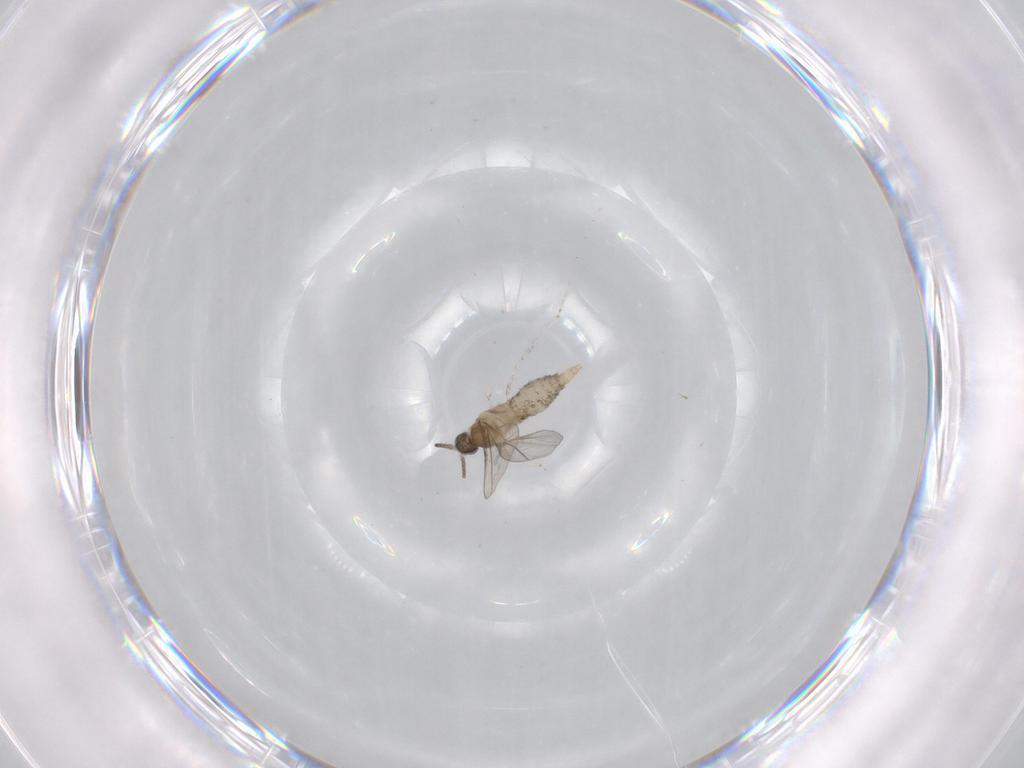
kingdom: Animalia
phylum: Arthropoda
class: Insecta
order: Diptera
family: Cecidomyiidae
